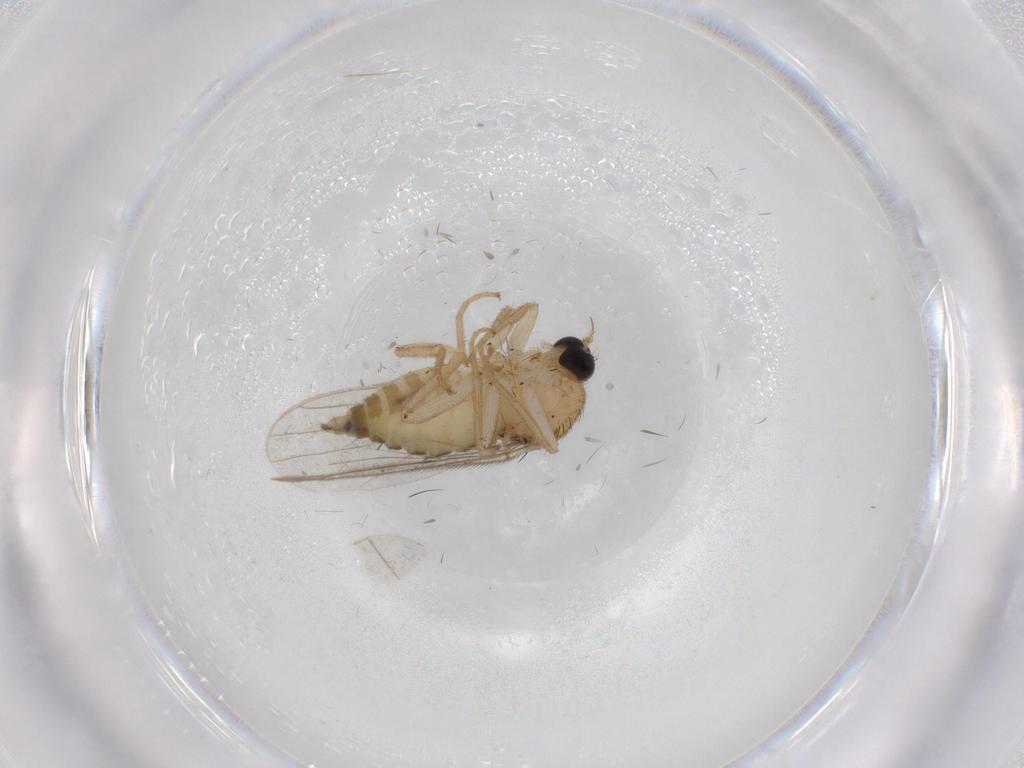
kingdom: Animalia
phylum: Arthropoda
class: Insecta
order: Diptera
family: Hybotidae
